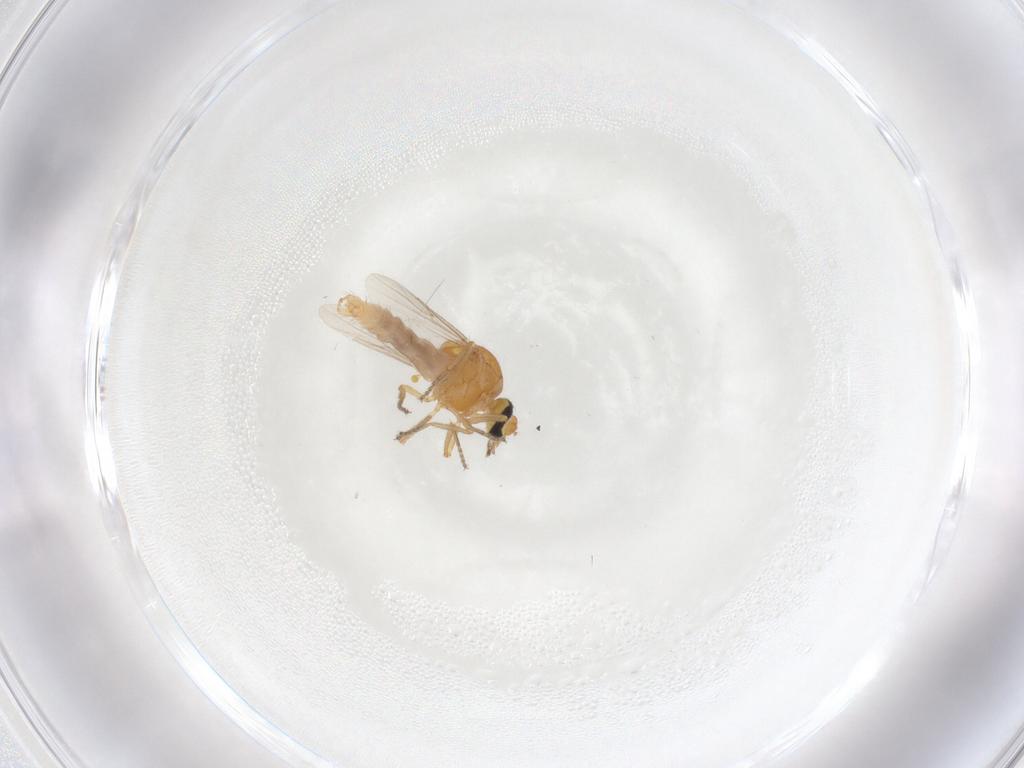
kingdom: Animalia
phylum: Arthropoda
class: Insecta
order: Diptera
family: Ceratopogonidae
